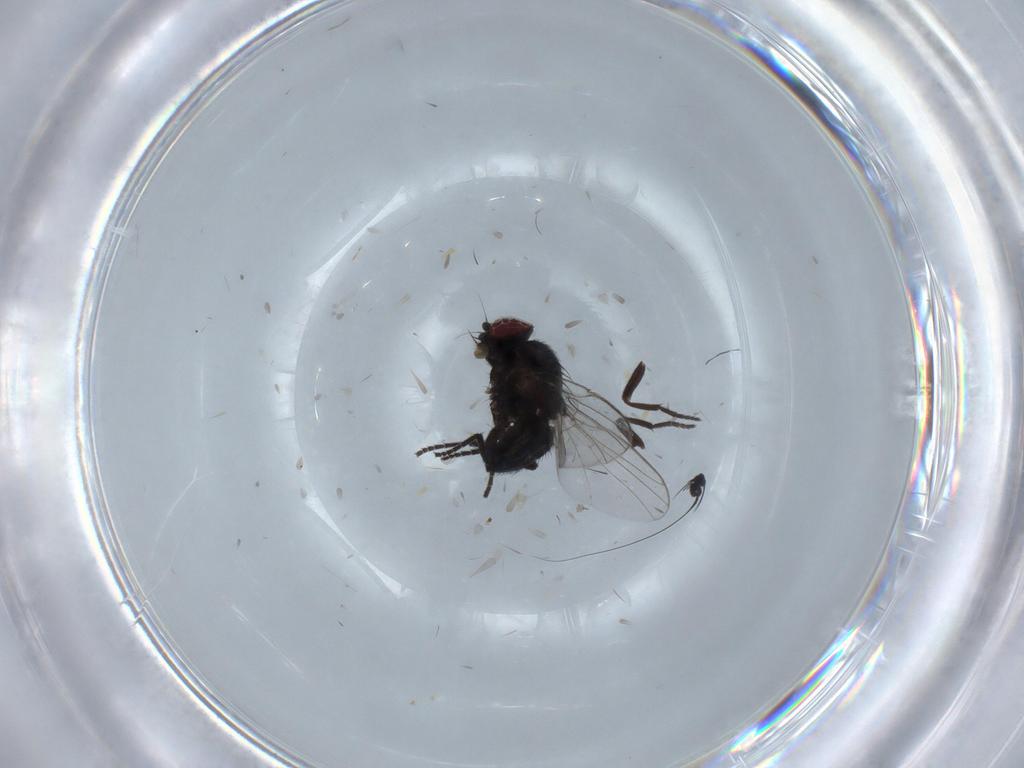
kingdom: Animalia
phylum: Arthropoda
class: Insecta
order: Diptera
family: Agromyzidae
